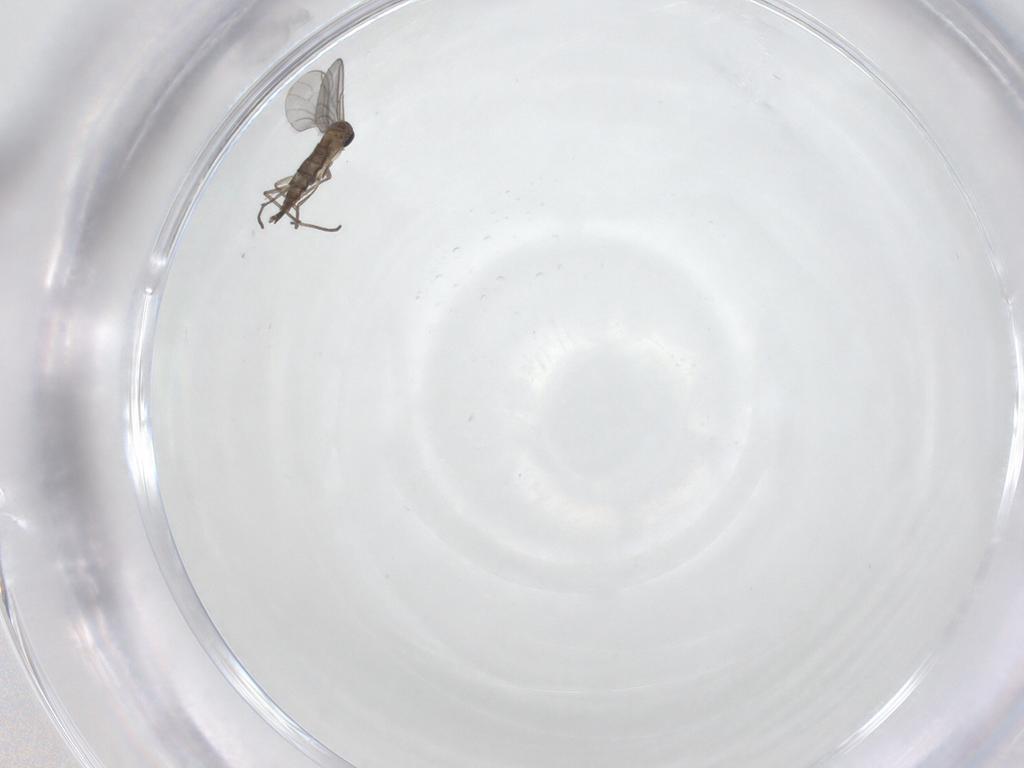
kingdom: Animalia
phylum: Arthropoda
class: Insecta
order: Diptera
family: Sciaridae
